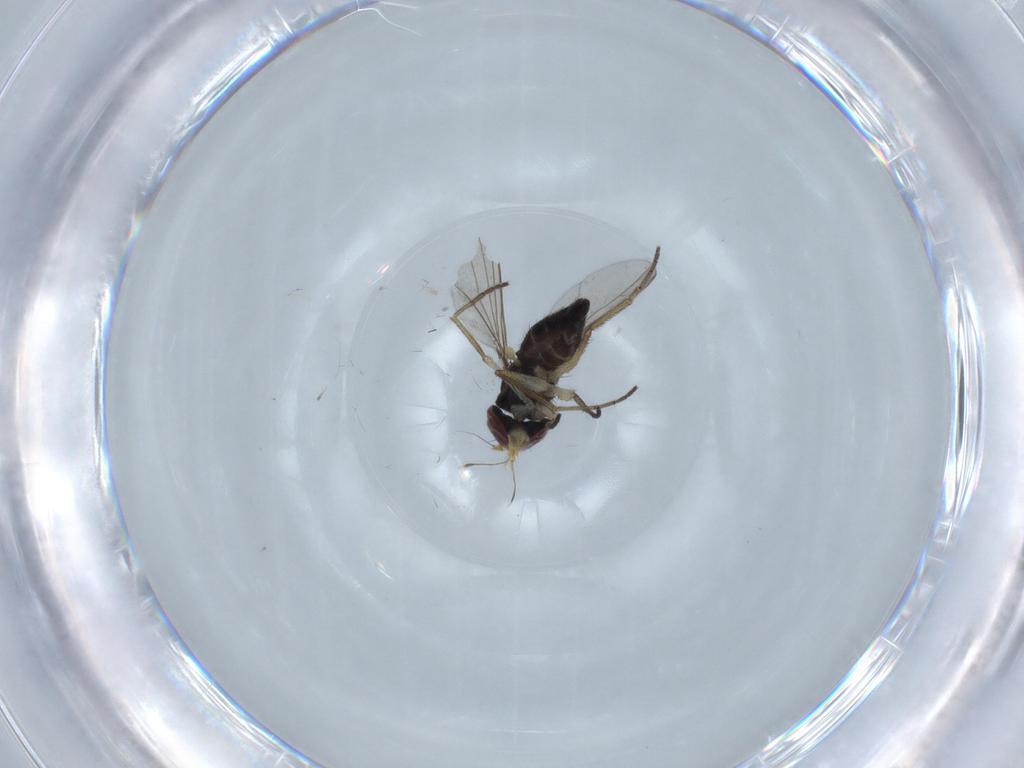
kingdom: Animalia
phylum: Arthropoda
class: Insecta
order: Diptera
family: Dolichopodidae
